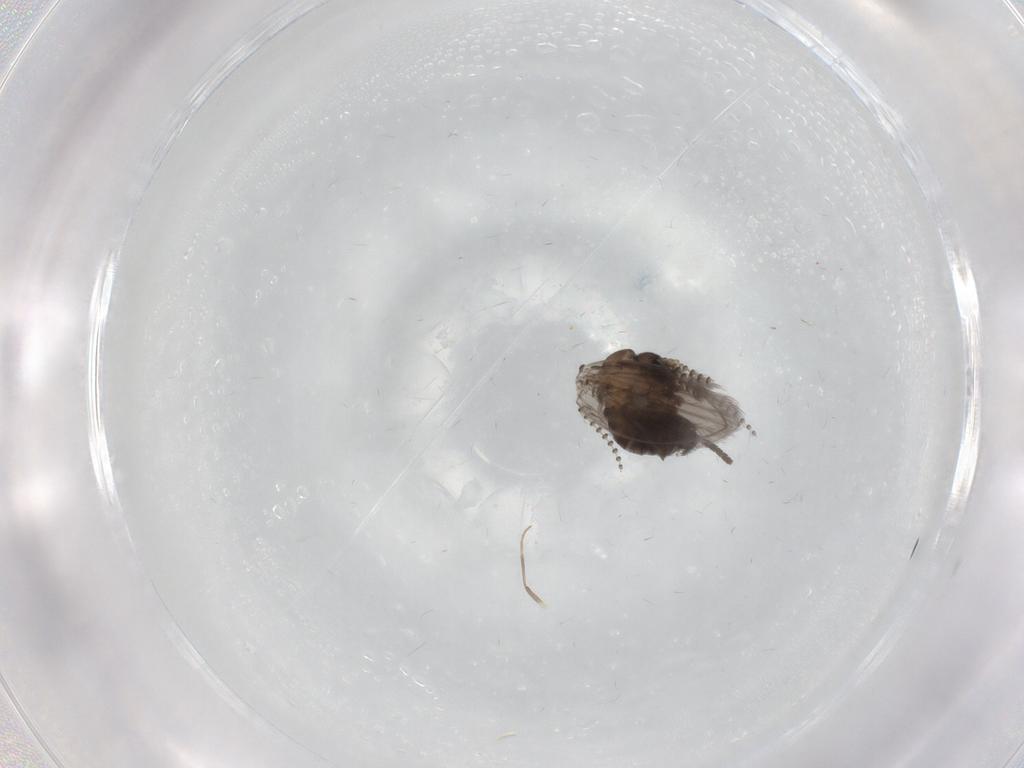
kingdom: Animalia
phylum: Arthropoda
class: Insecta
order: Diptera
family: Psychodidae
